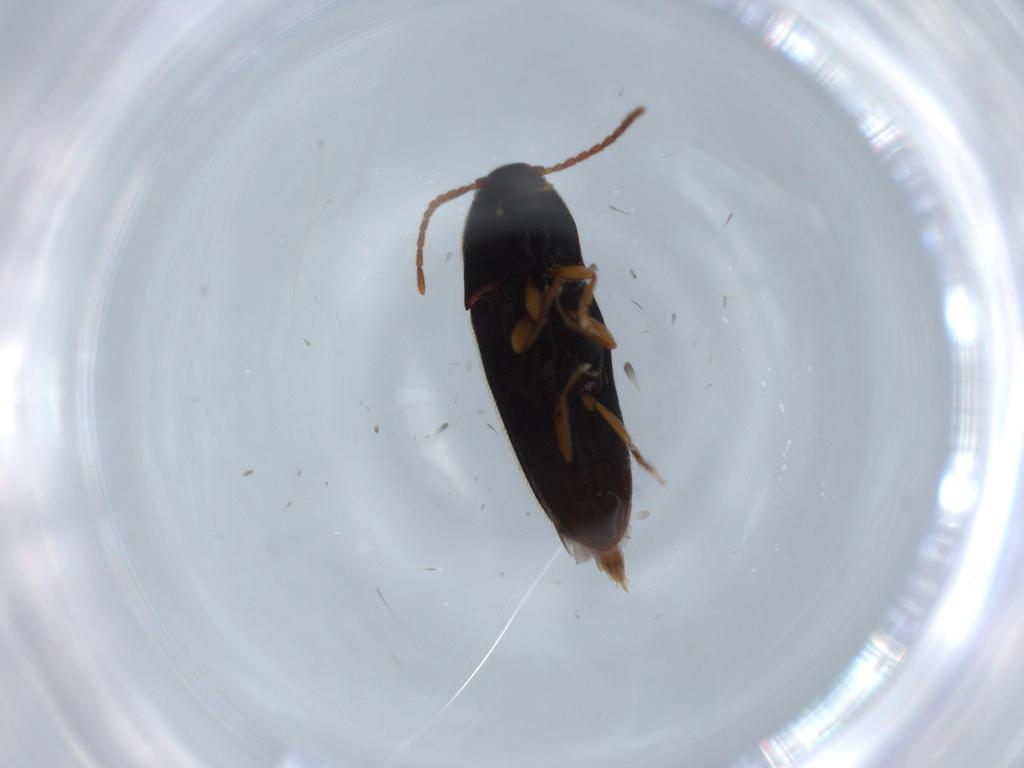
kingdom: Animalia
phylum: Arthropoda
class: Insecta
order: Coleoptera
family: Elateridae
